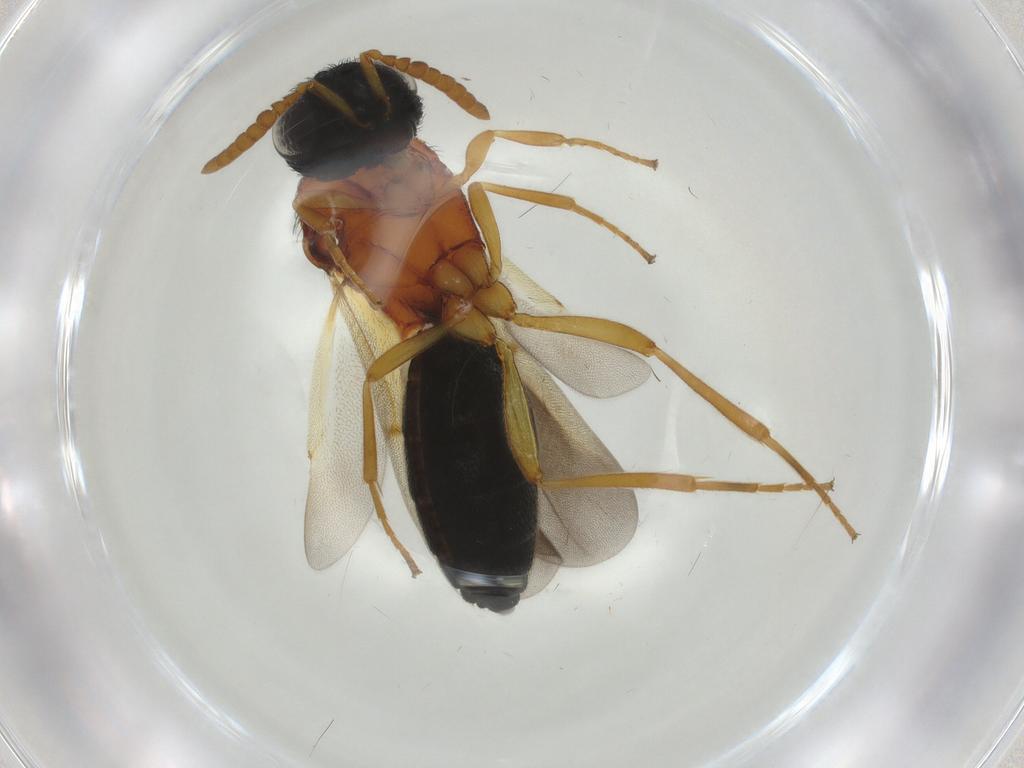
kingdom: Animalia
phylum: Arthropoda
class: Insecta
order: Hymenoptera
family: Scelionidae
